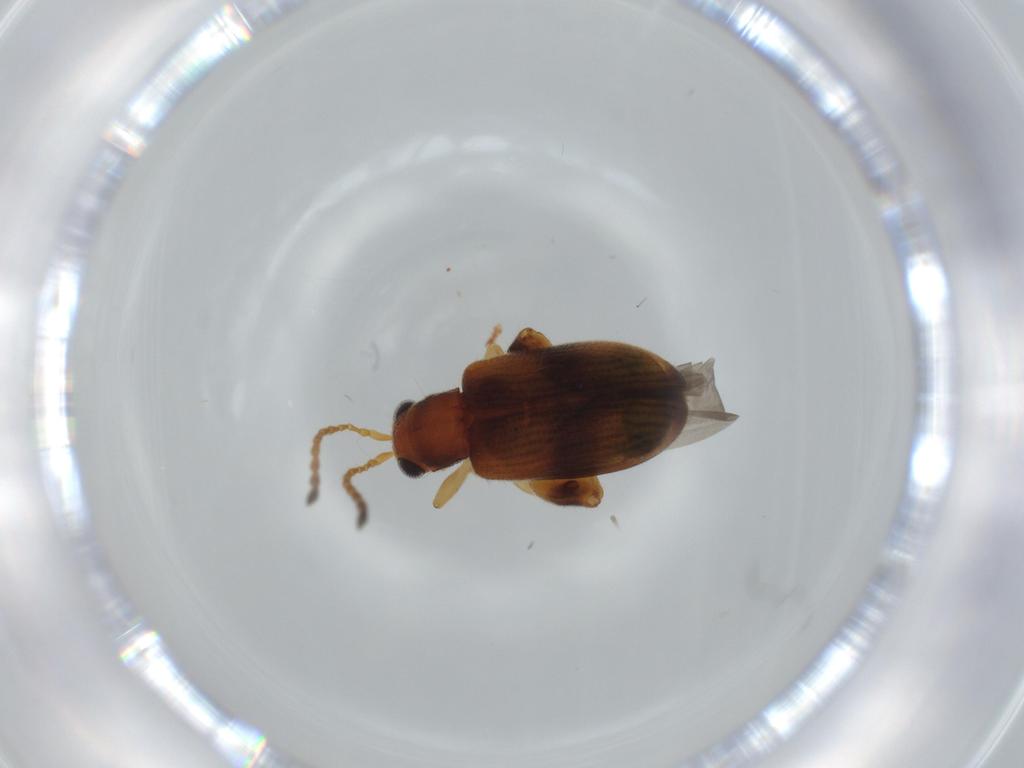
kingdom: Animalia
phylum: Arthropoda
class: Insecta
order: Coleoptera
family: Chrysomelidae
